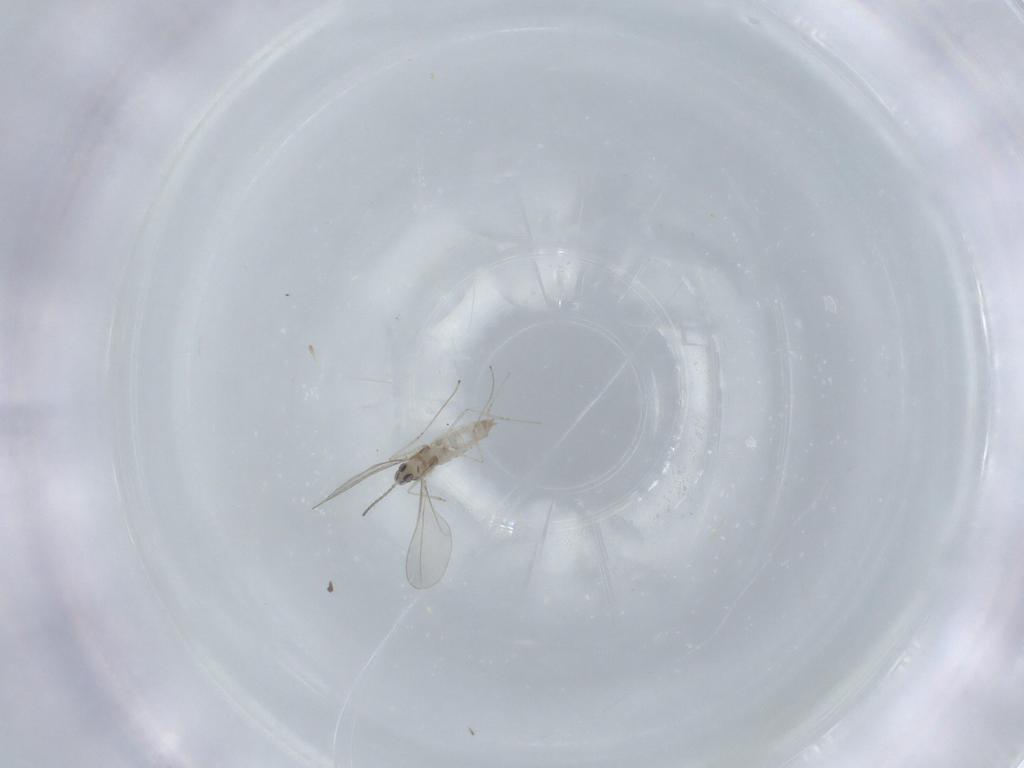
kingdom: Animalia
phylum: Arthropoda
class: Insecta
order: Diptera
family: Cecidomyiidae
